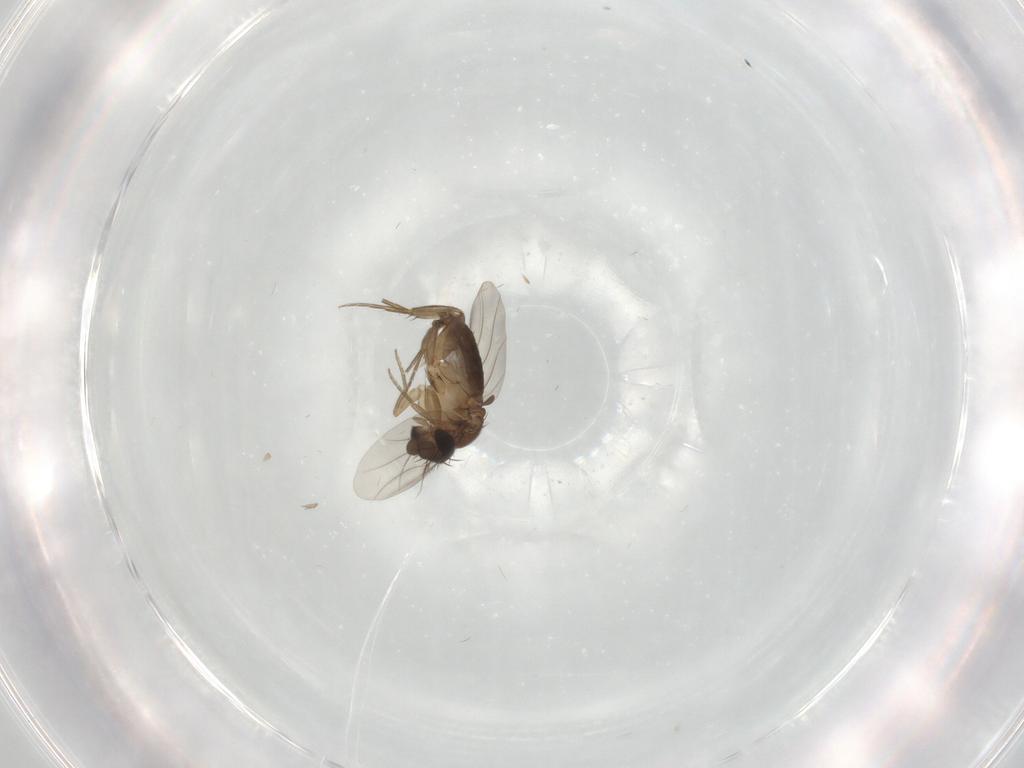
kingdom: Animalia
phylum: Arthropoda
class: Insecta
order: Diptera
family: Phoridae
